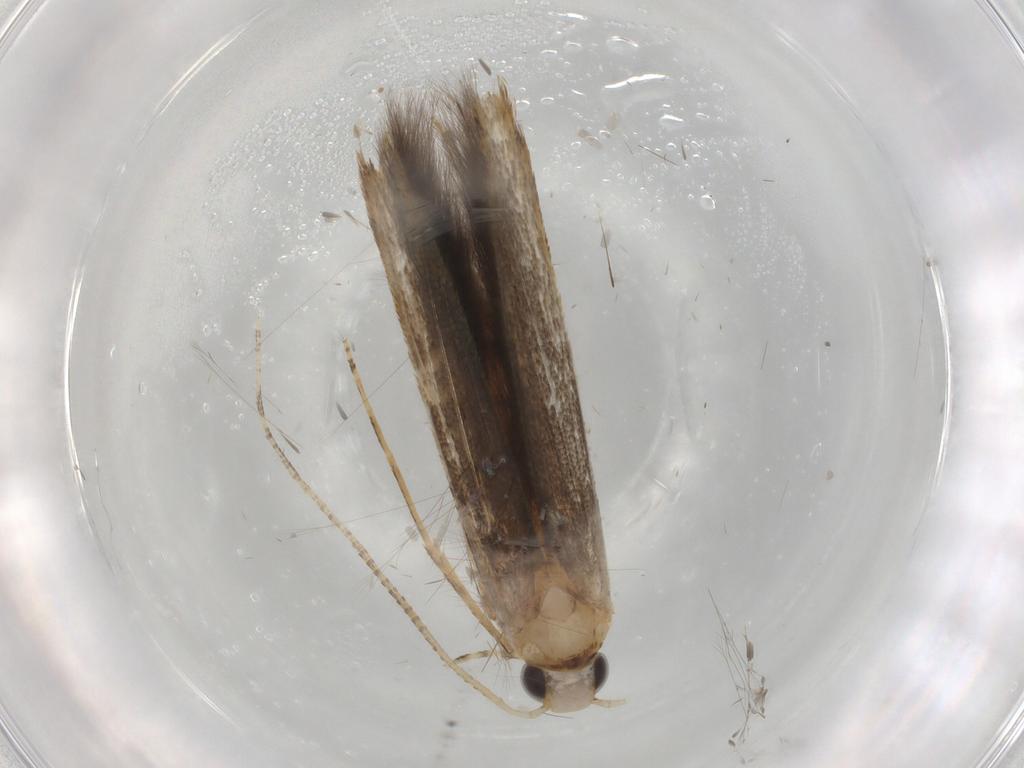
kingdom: Animalia
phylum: Arthropoda
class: Insecta
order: Lepidoptera
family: Gracillariidae
